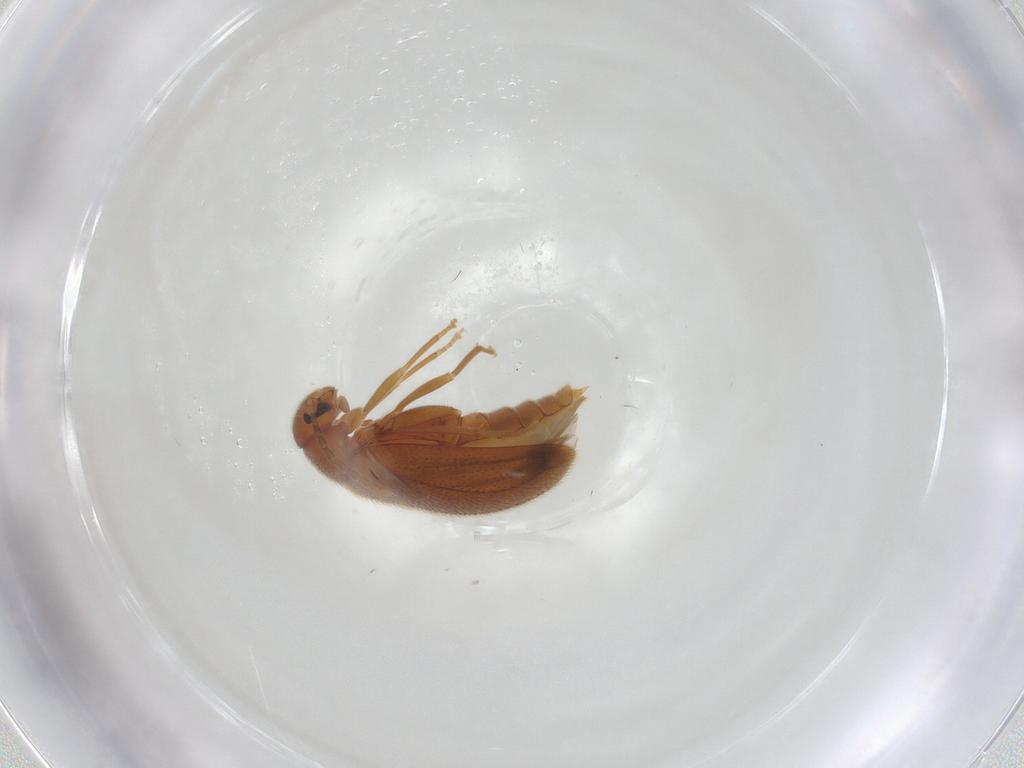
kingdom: Animalia
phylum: Arthropoda
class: Insecta
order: Coleoptera
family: Scraptiidae
